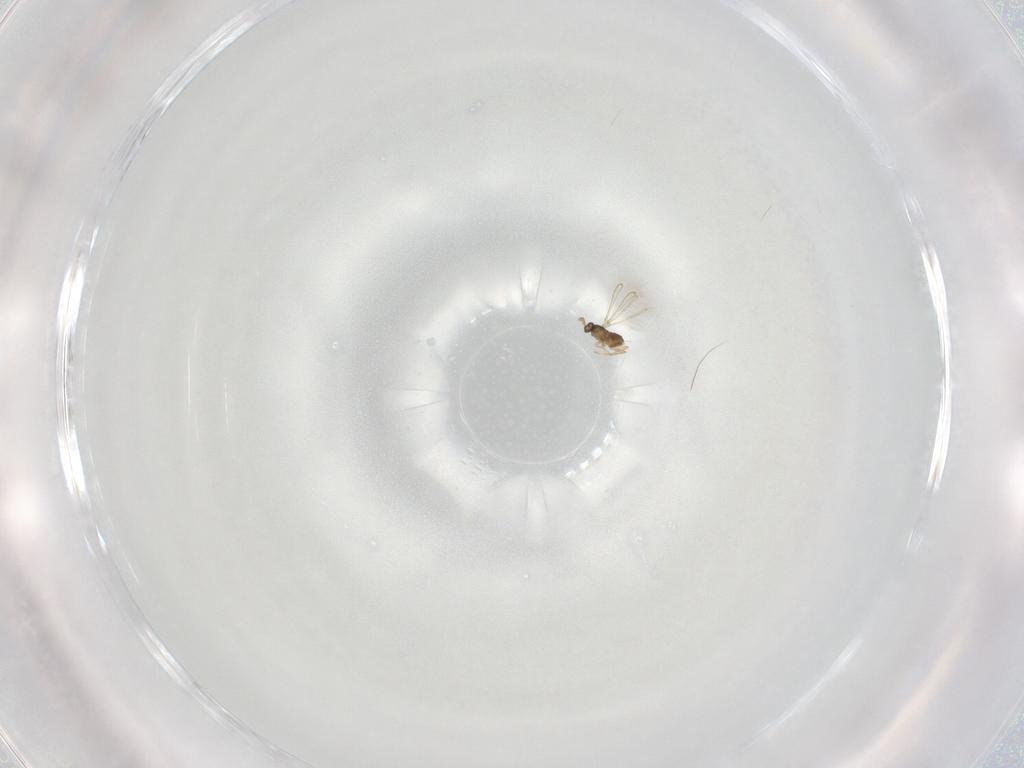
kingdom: Animalia
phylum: Arthropoda
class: Insecta
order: Hymenoptera
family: Mymaridae
